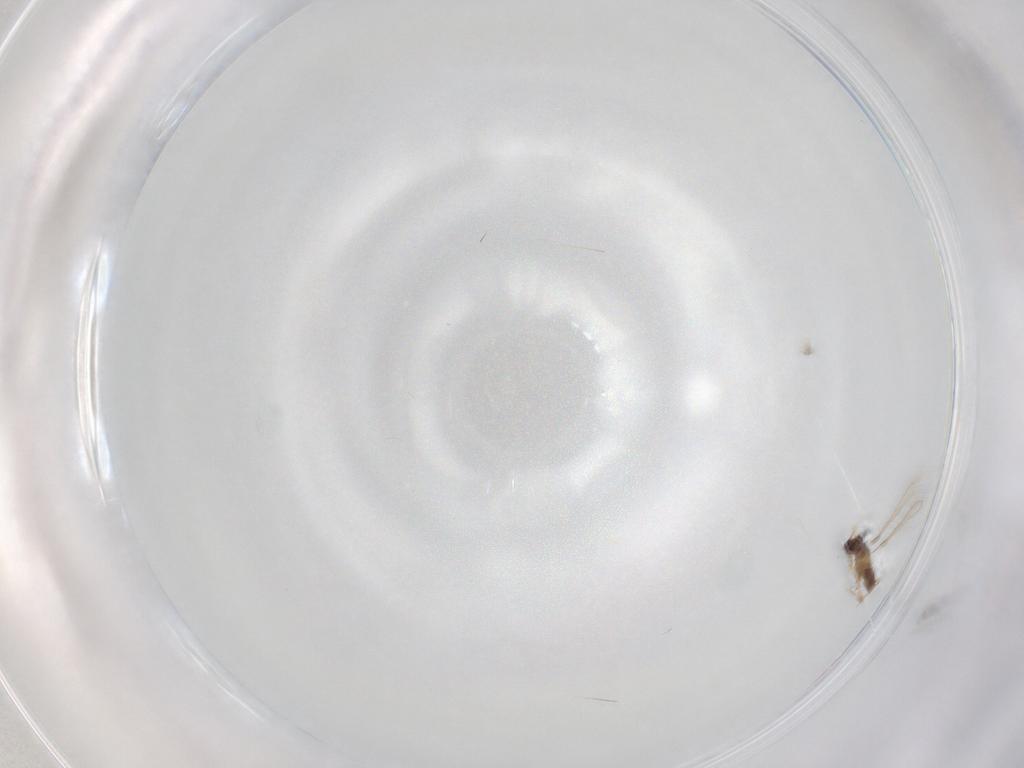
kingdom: Animalia
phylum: Arthropoda
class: Insecta
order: Hymenoptera
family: Mymaridae
